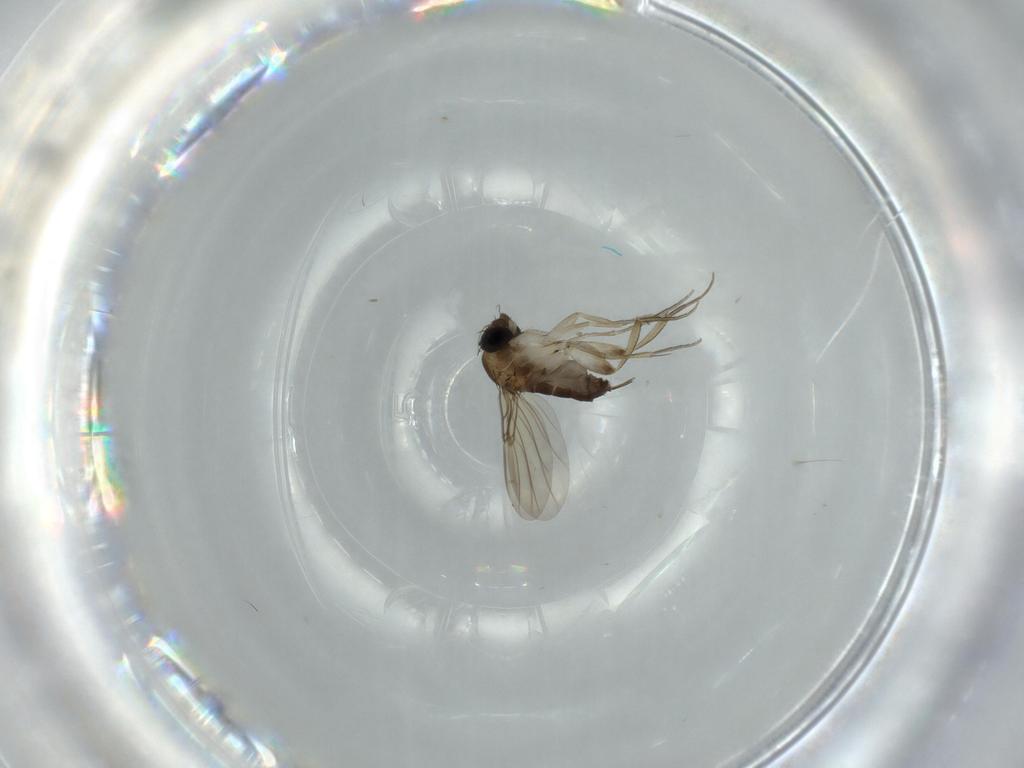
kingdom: Animalia
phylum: Arthropoda
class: Insecta
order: Diptera
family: Phoridae
